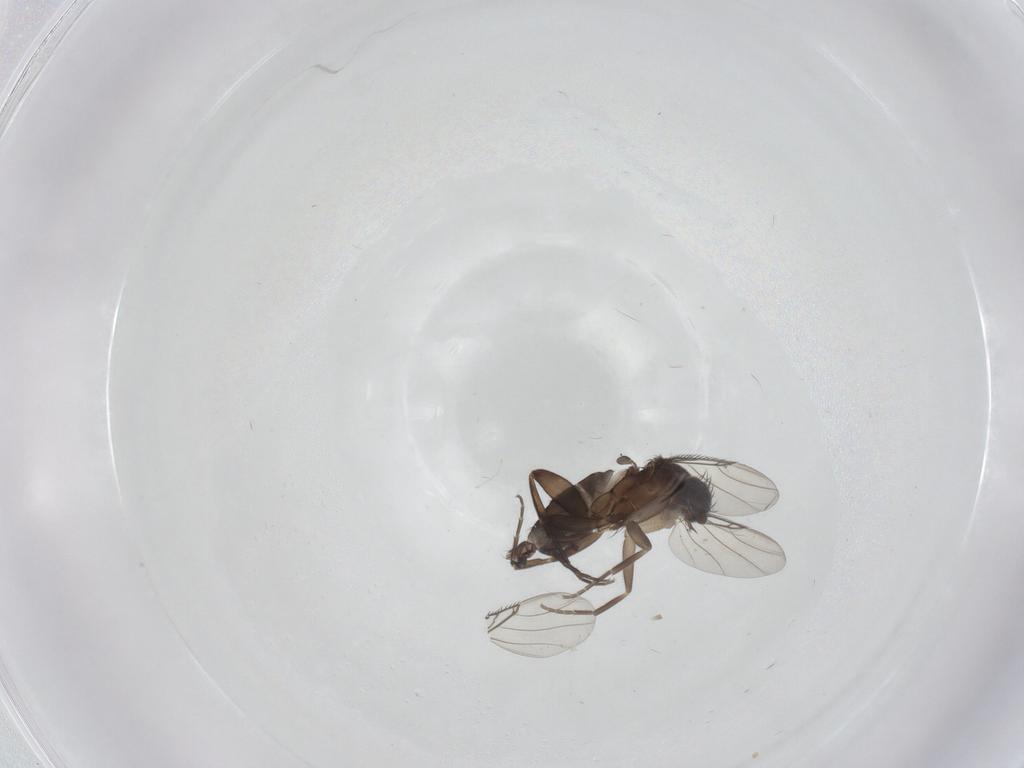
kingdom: Animalia
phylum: Arthropoda
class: Insecta
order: Diptera
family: Phoridae
